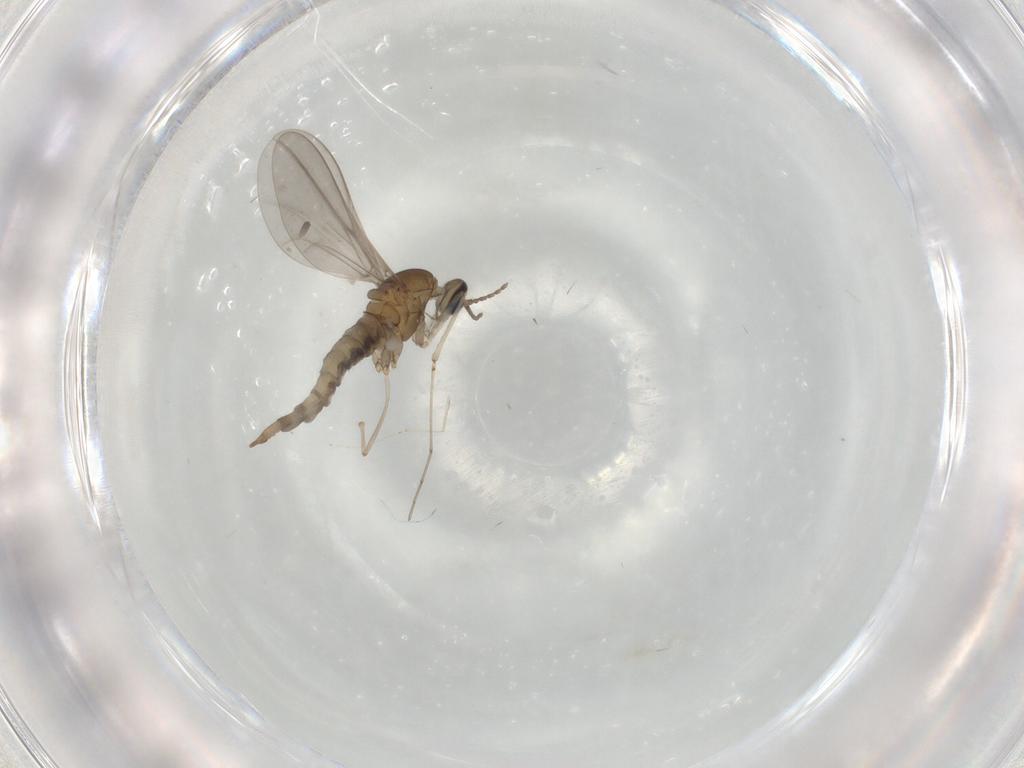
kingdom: Animalia
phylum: Arthropoda
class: Insecta
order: Diptera
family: Cecidomyiidae
